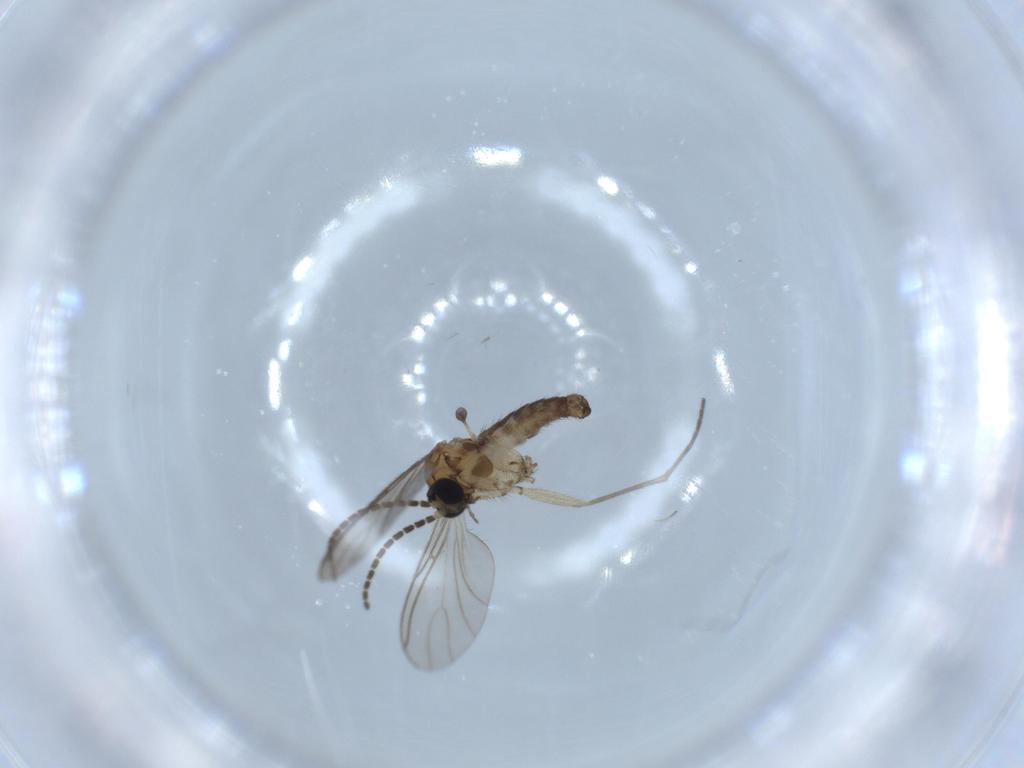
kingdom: Animalia
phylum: Arthropoda
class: Insecta
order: Diptera
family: Sciaridae
